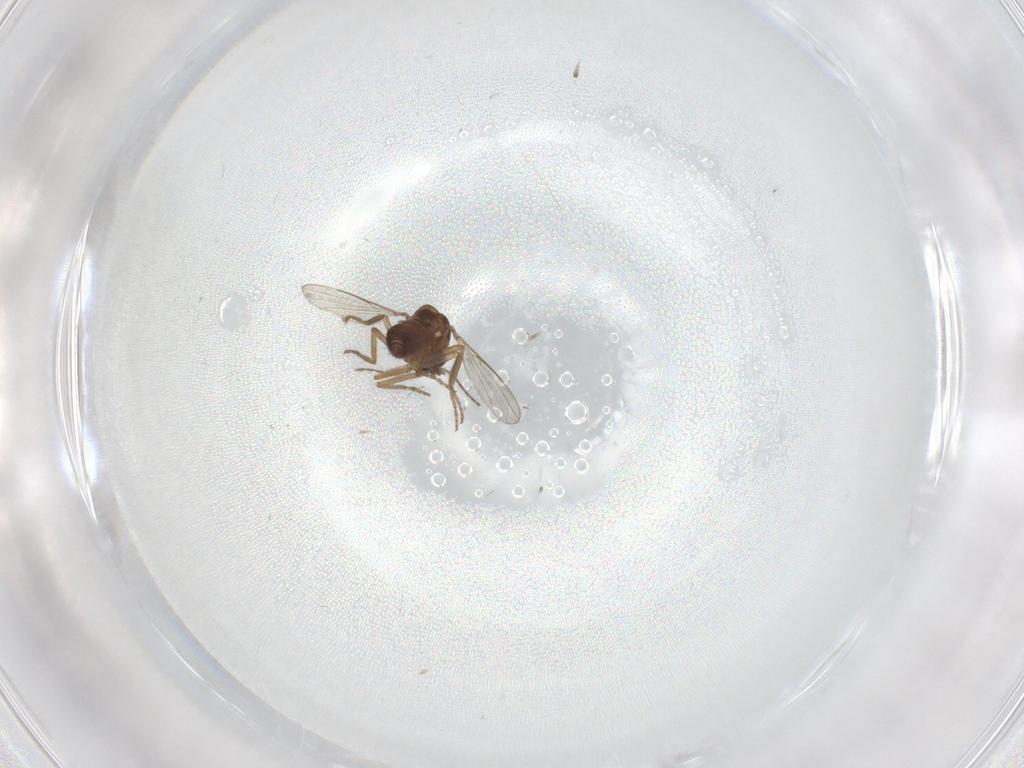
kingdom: Animalia
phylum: Arthropoda
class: Insecta
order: Diptera
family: Ceratopogonidae
